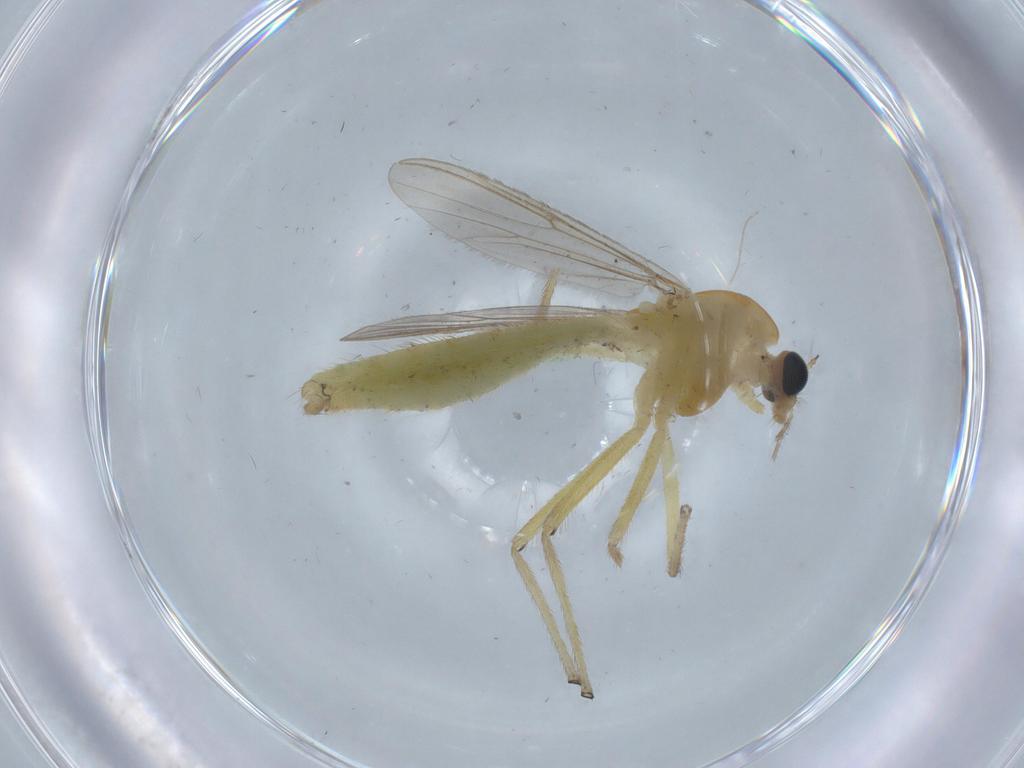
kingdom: Animalia
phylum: Arthropoda
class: Insecta
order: Diptera
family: Chironomidae
